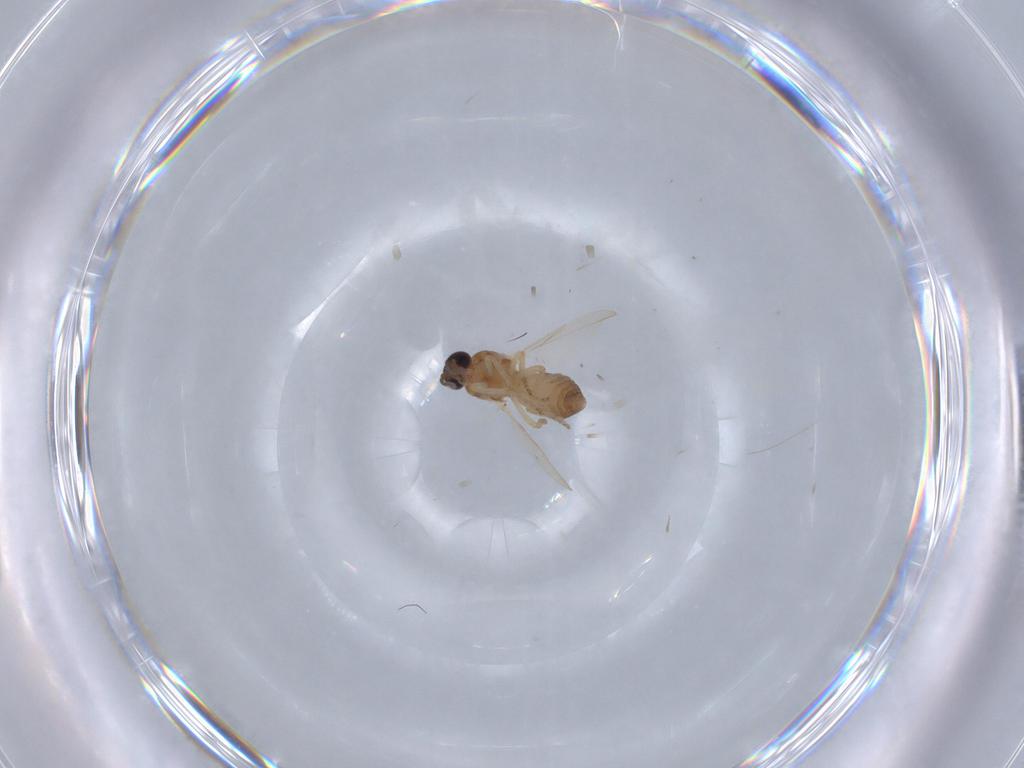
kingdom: Animalia
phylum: Arthropoda
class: Insecta
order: Diptera
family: Ceratopogonidae
